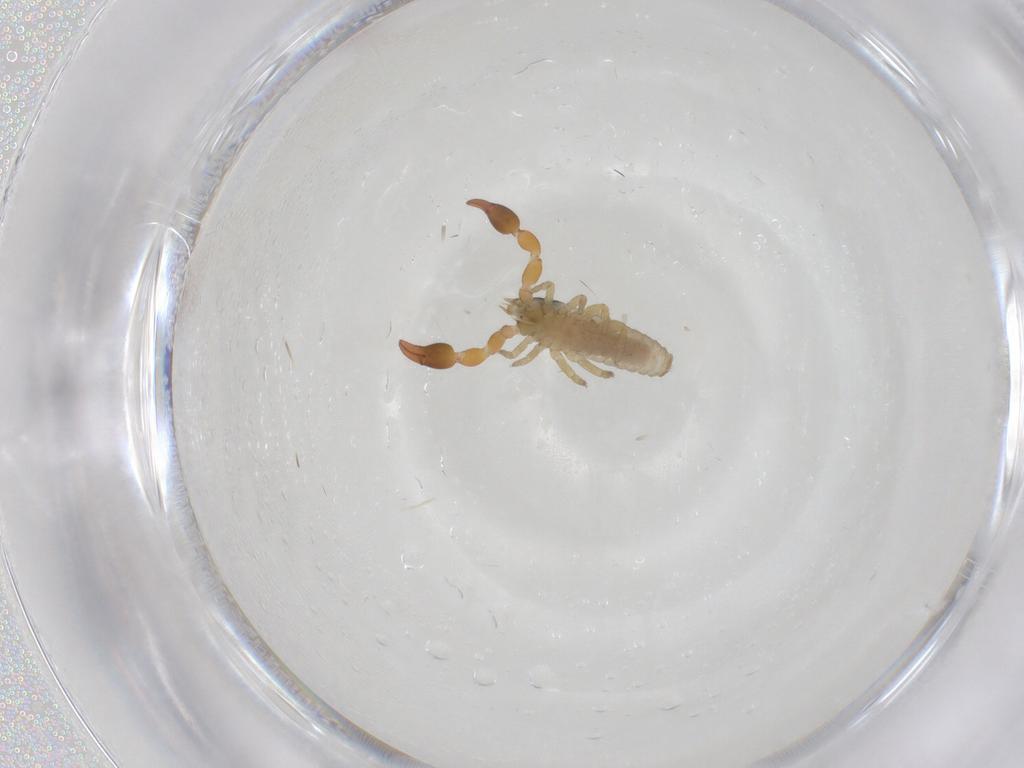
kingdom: Animalia
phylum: Arthropoda
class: Arachnida
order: Pseudoscorpiones
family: Chernetidae
